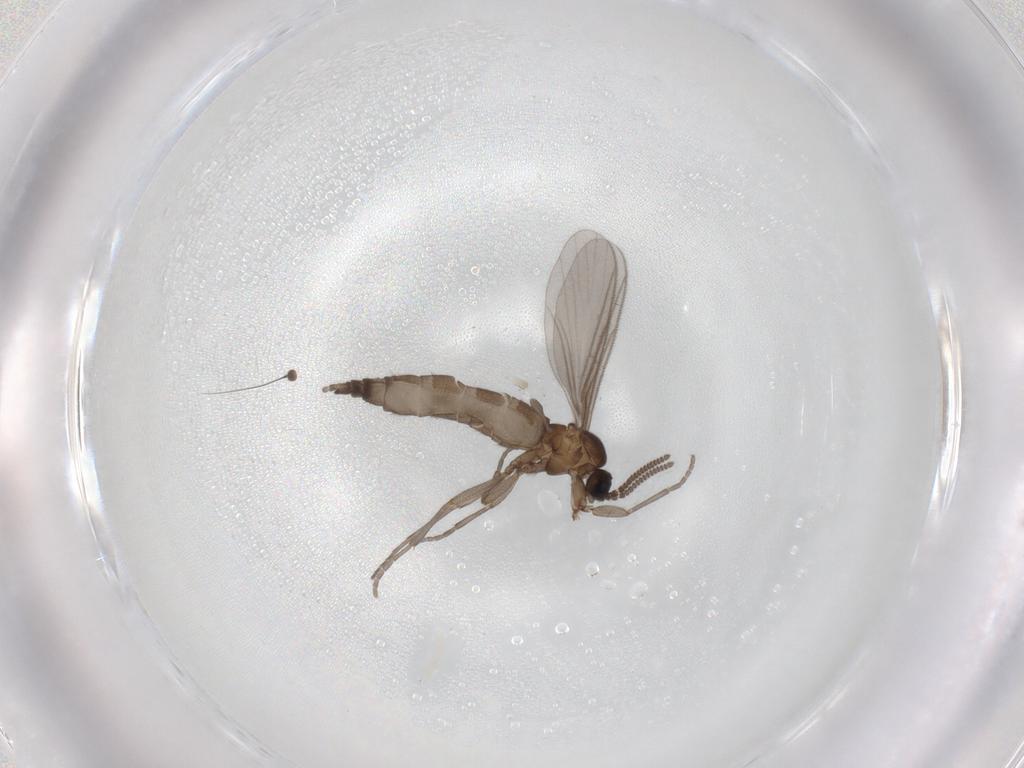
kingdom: Animalia
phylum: Arthropoda
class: Insecta
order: Diptera
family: Sciaridae
